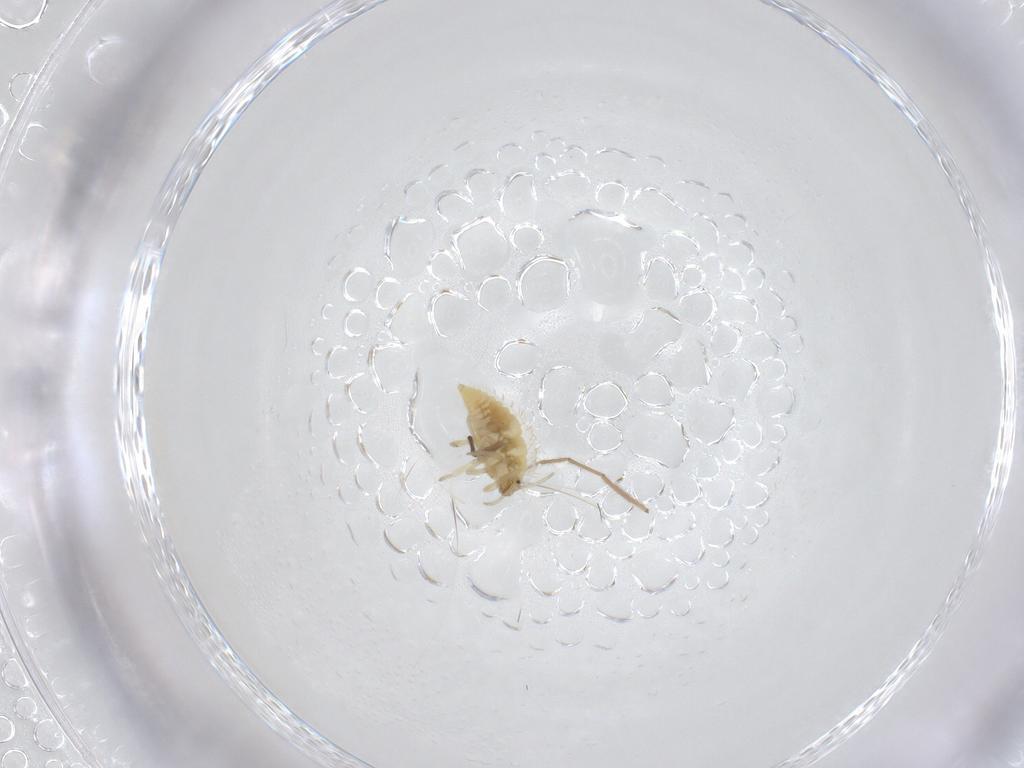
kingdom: Animalia
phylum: Arthropoda
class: Insecta
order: Neuroptera
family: Coniopterygidae
